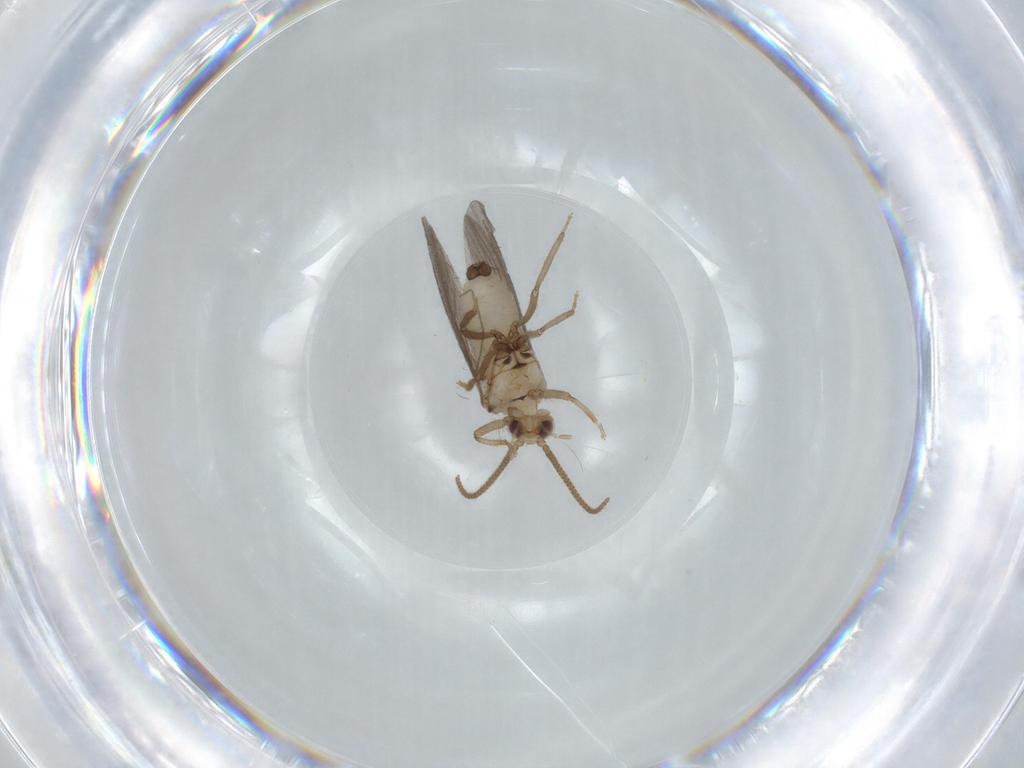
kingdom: Animalia
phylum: Arthropoda
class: Insecta
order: Neuroptera
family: Coniopterygidae
